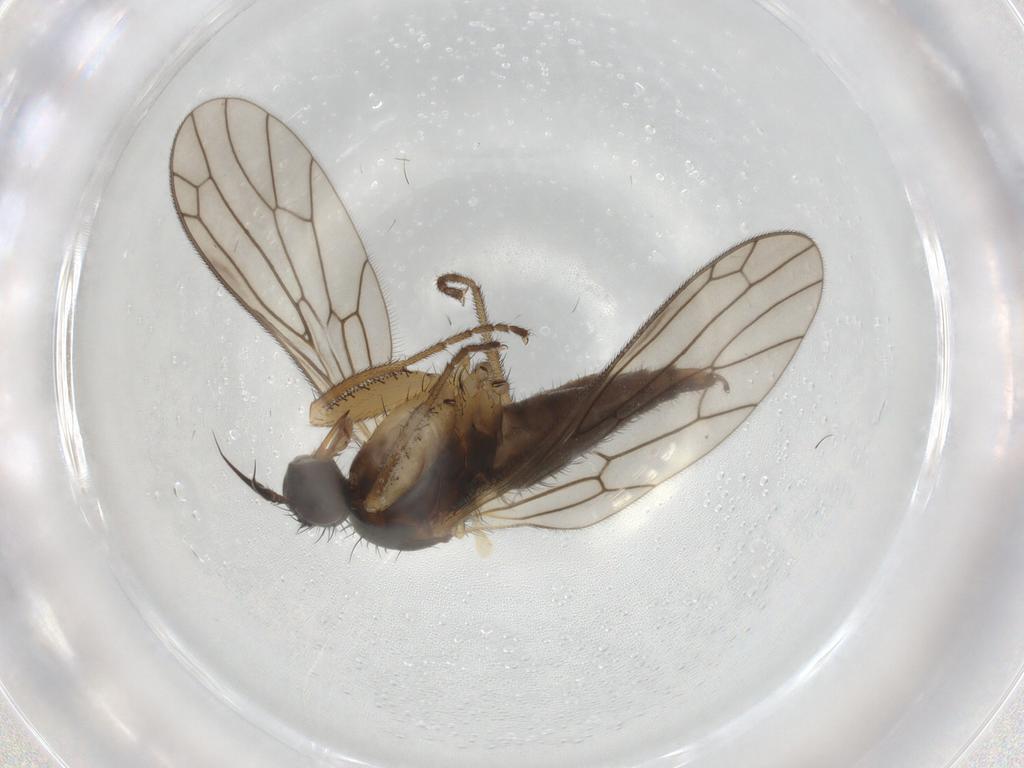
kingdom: Animalia
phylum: Arthropoda
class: Insecta
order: Diptera
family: Empididae
